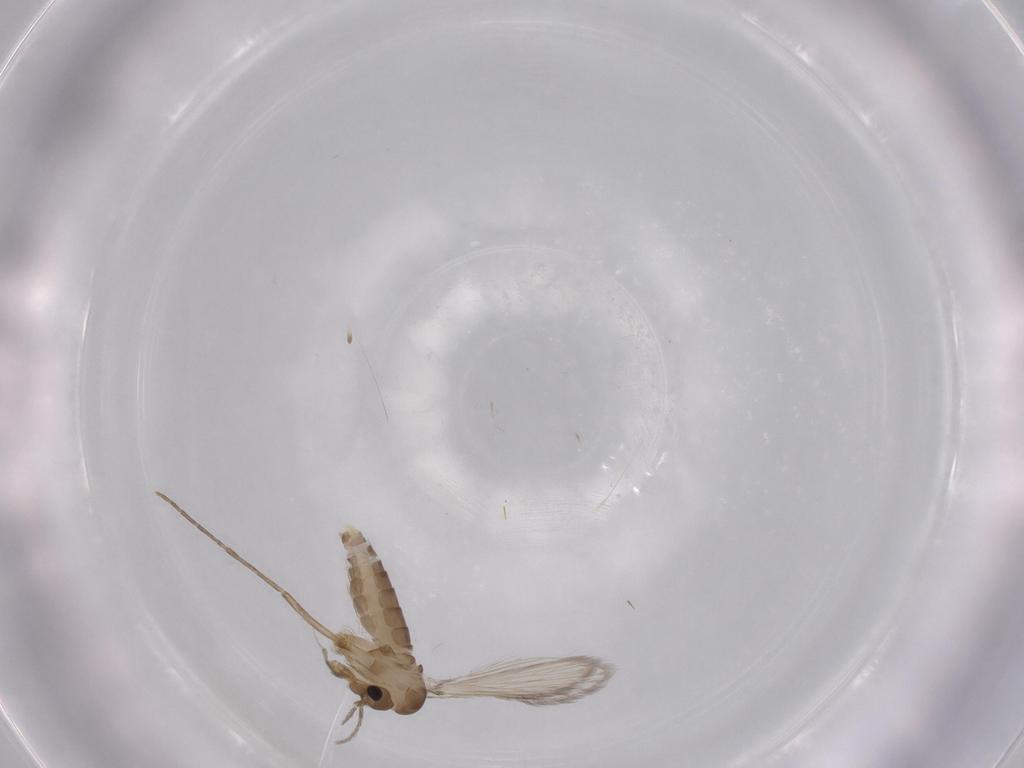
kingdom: Animalia
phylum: Arthropoda
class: Insecta
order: Diptera
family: Psychodidae
